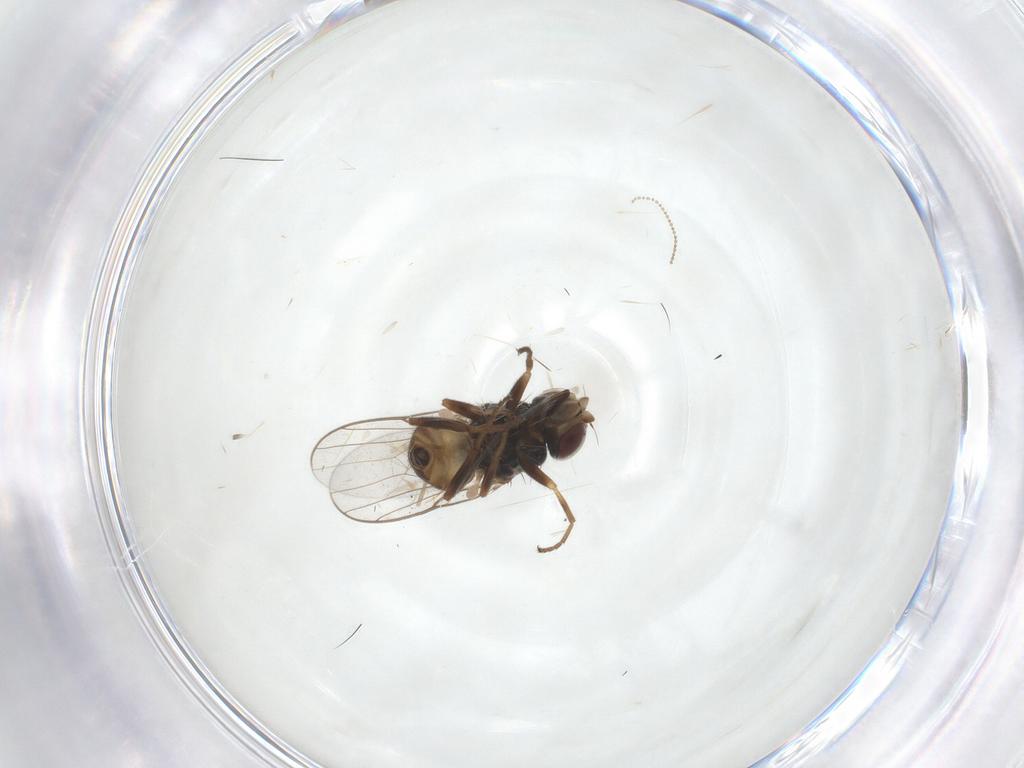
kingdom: Animalia
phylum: Arthropoda
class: Insecta
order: Diptera
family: Chloropidae
